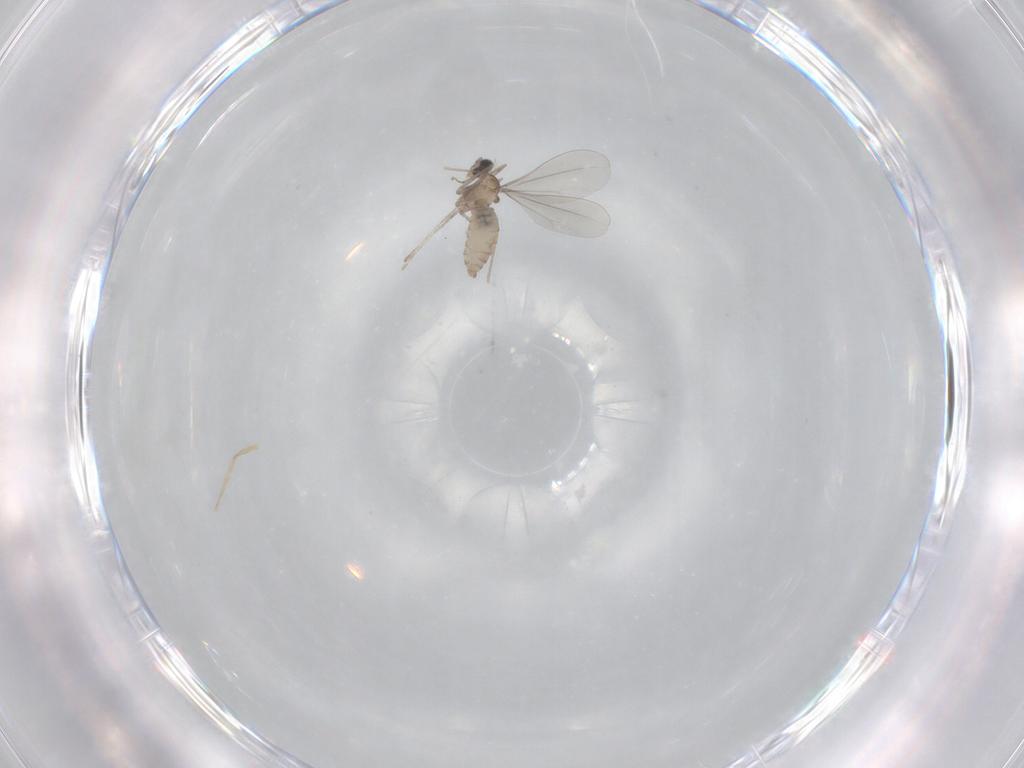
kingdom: Animalia
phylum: Arthropoda
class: Insecta
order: Diptera
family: Cecidomyiidae
